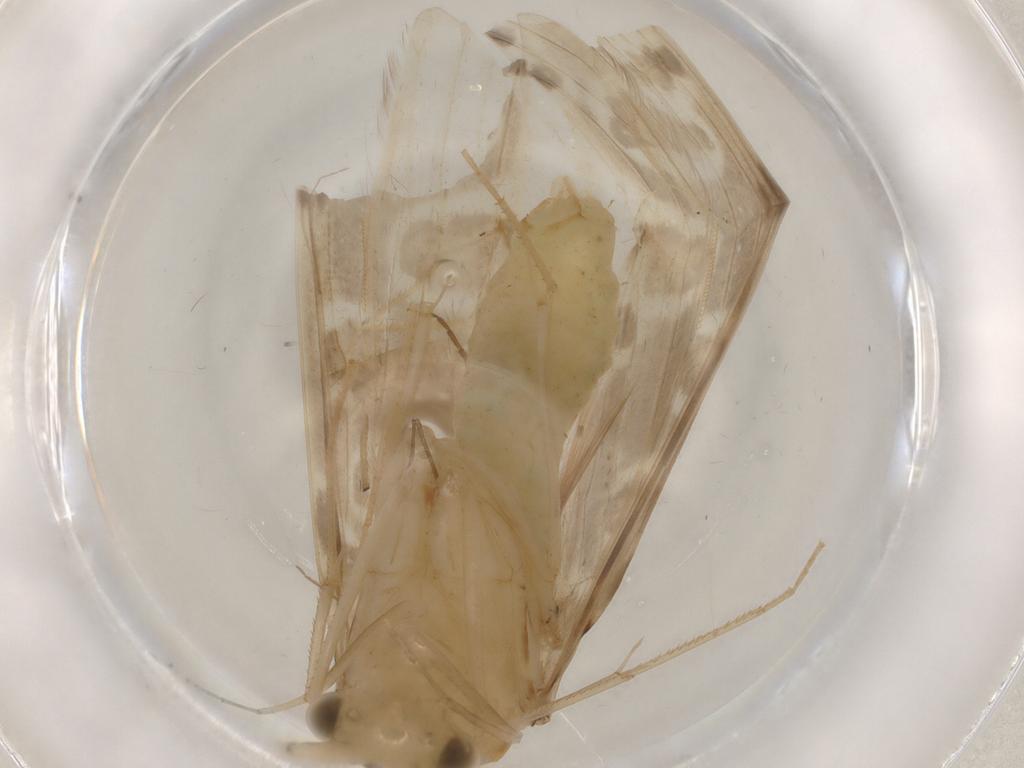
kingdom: Animalia
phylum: Arthropoda
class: Insecta
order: Trichoptera
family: Leptoceridae
